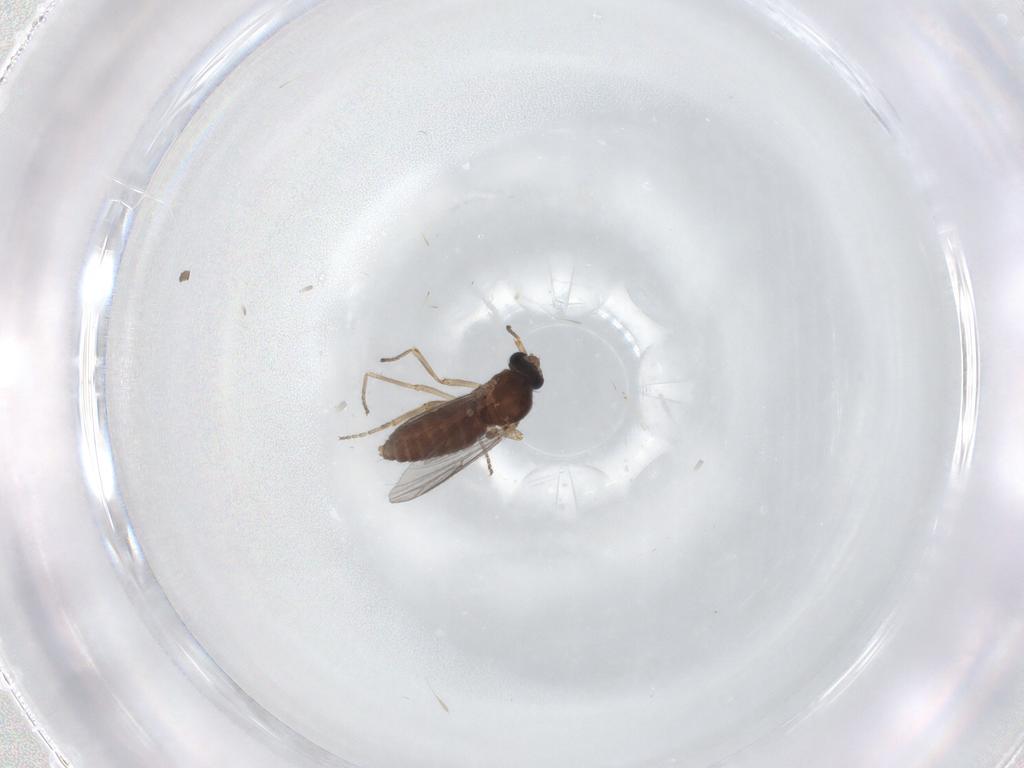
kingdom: Animalia
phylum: Arthropoda
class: Insecta
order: Diptera
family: Ceratopogonidae
